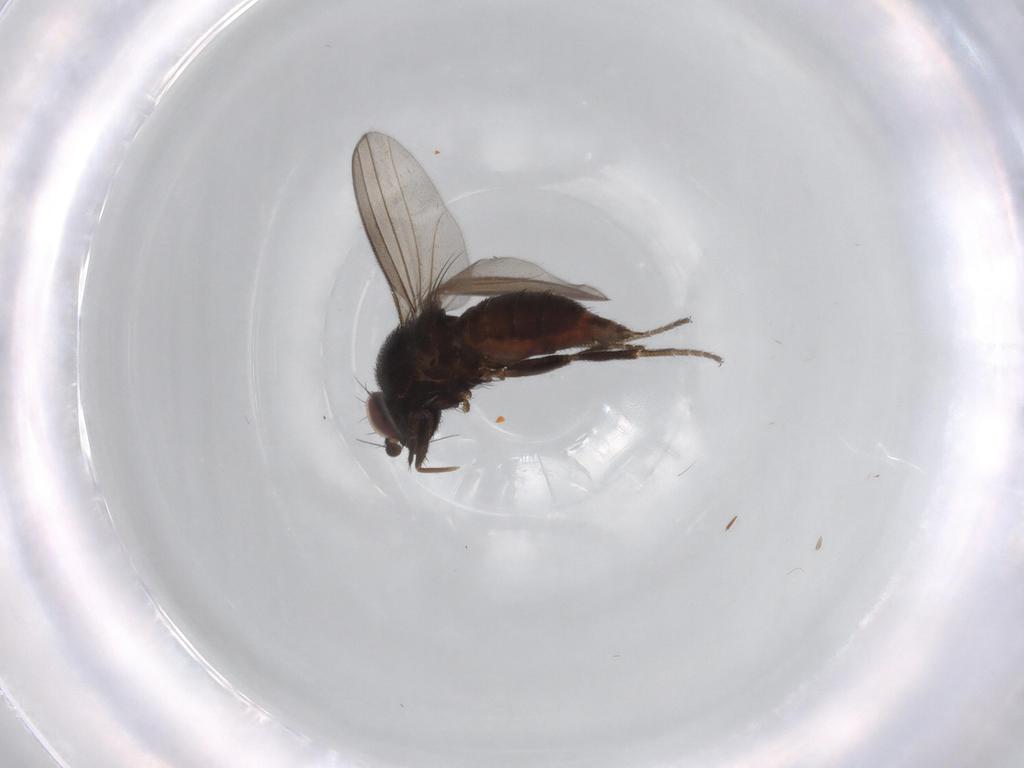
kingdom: Animalia
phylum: Arthropoda
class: Insecta
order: Diptera
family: Milichiidae
